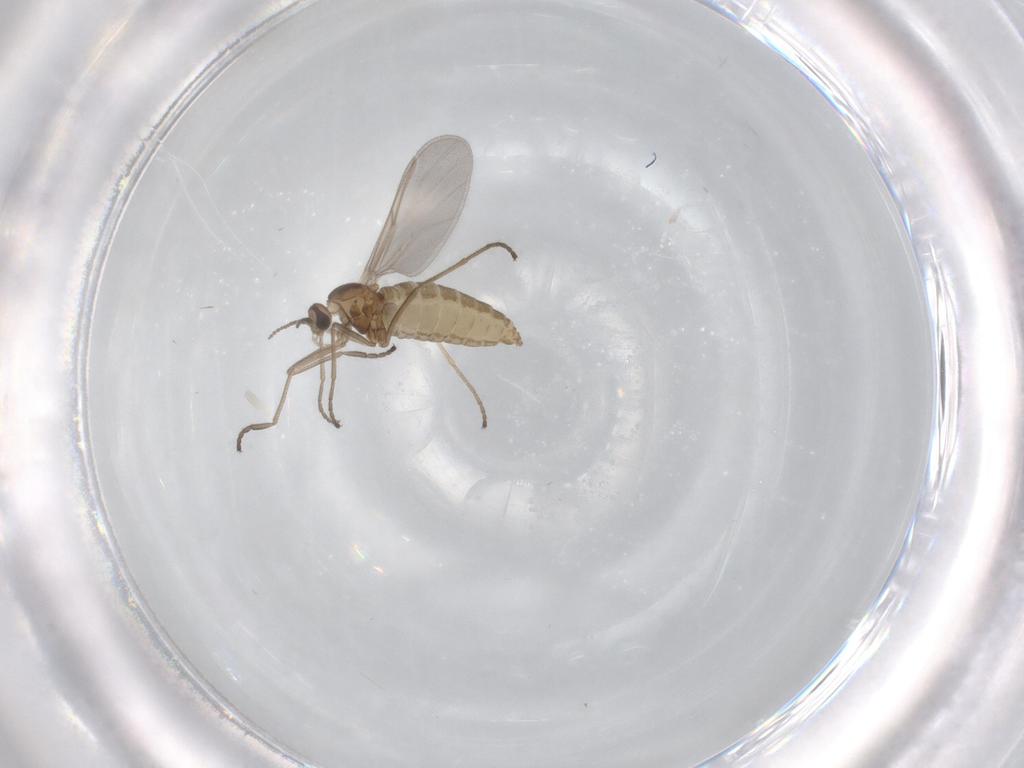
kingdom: Animalia
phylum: Arthropoda
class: Insecta
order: Diptera
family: Cecidomyiidae
